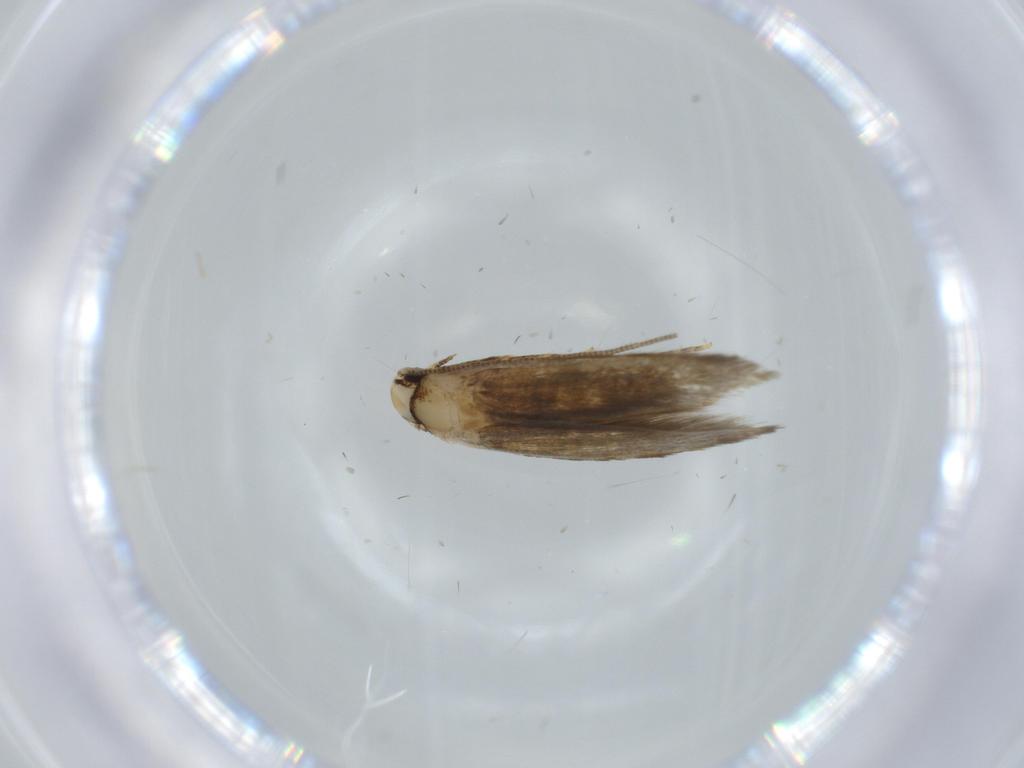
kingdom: Animalia
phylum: Arthropoda
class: Insecta
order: Lepidoptera
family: Tineidae
